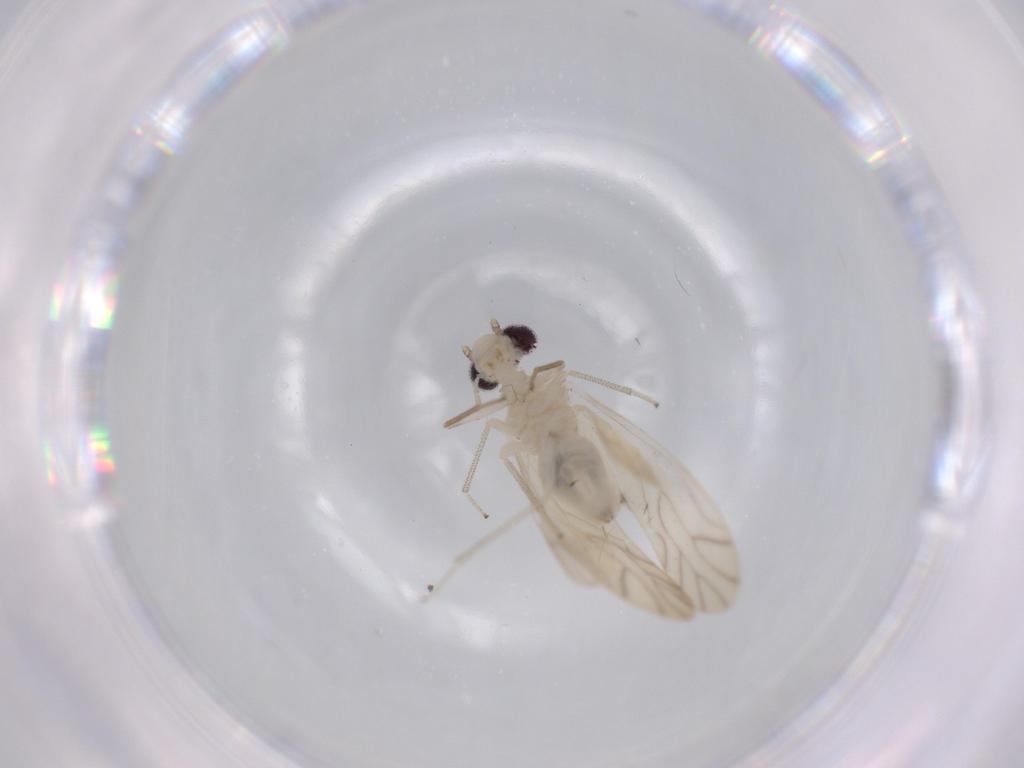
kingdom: Animalia
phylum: Arthropoda
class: Insecta
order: Psocodea
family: Caeciliusidae
